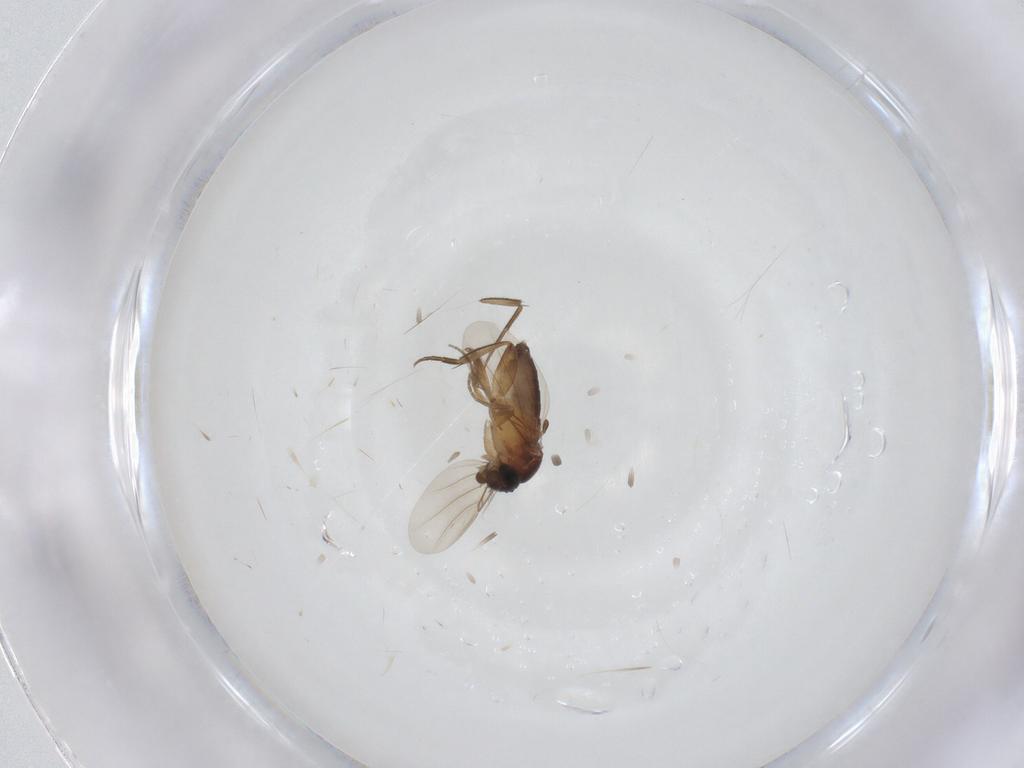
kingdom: Animalia
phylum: Arthropoda
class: Insecta
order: Diptera
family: Phoridae
